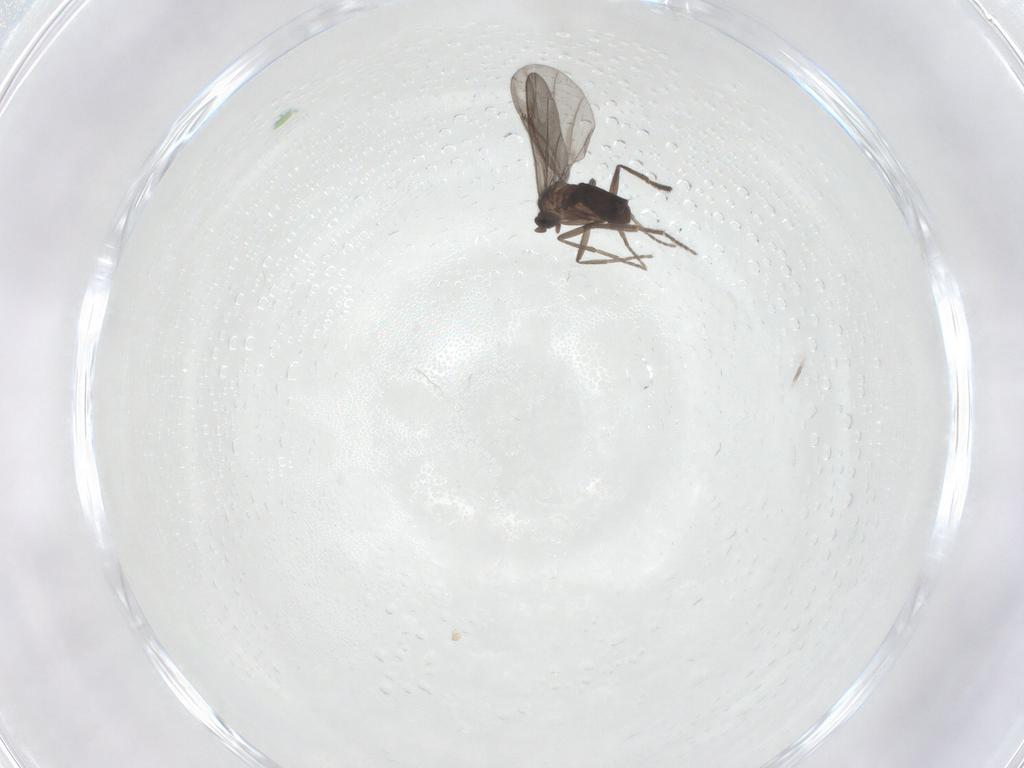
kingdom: Animalia
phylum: Arthropoda
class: Insecta
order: Diptera
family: Phoridae
